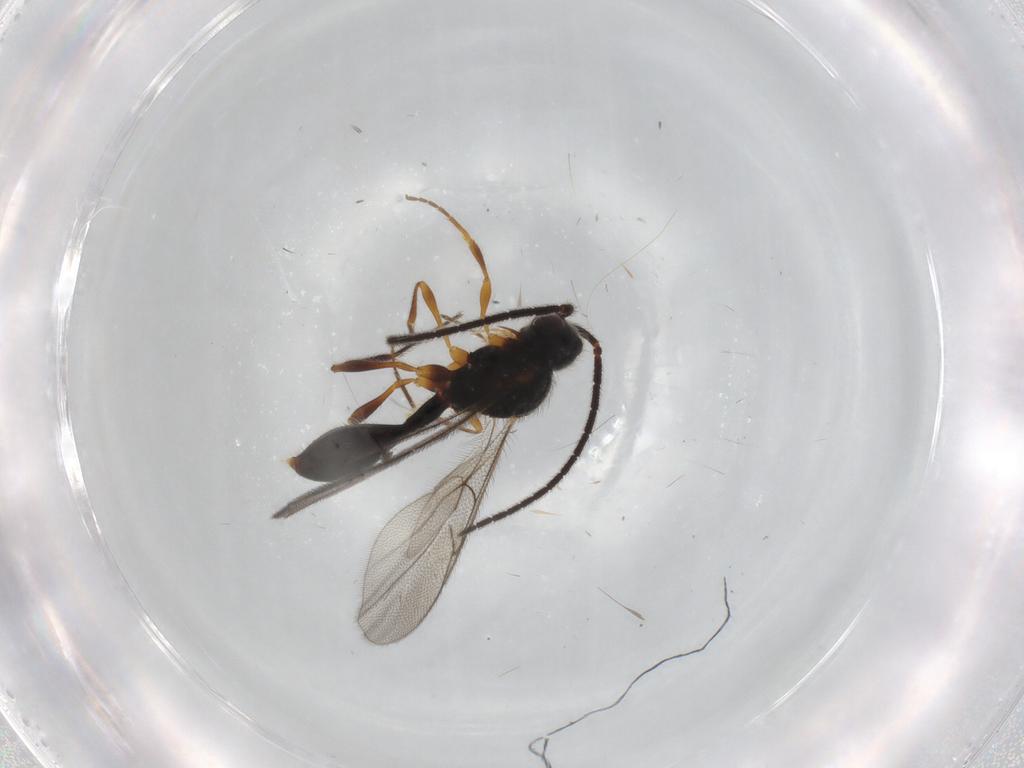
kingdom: Animalia
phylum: Arthropoda
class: Insecta
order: Hymenoptera
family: Diapriidae
